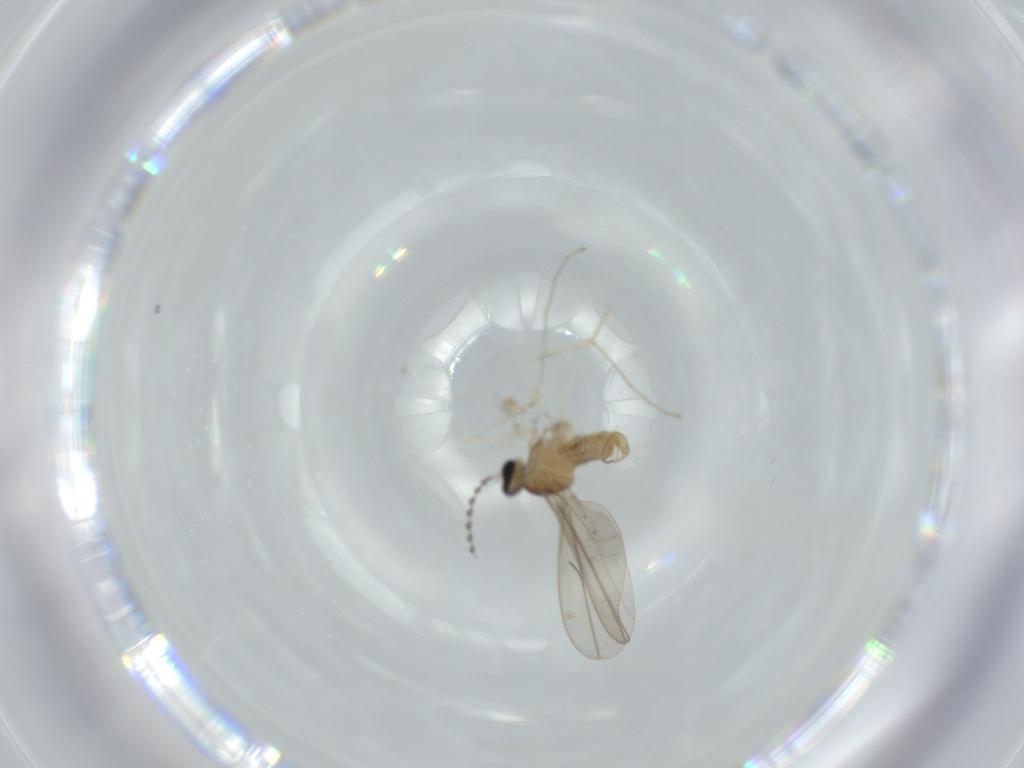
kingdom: Animalia
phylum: Arthropoda
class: Insecta
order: Diptera
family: Cecidomyiidae
